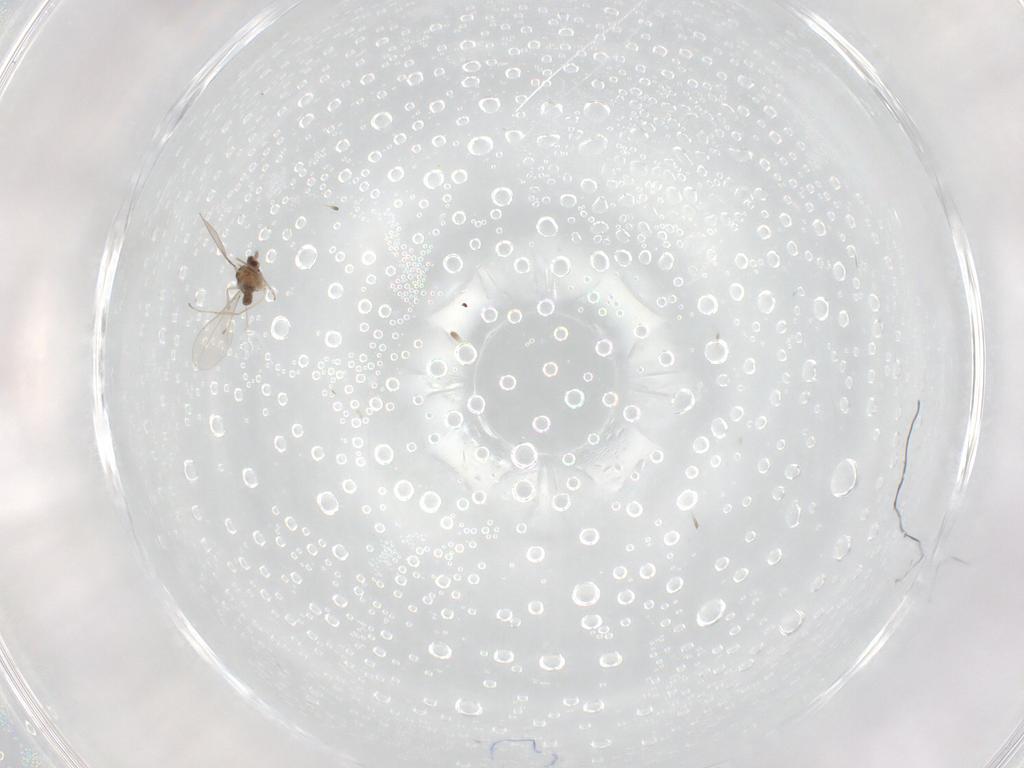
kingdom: Animalia
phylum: Arthropoda
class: Insecta
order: Diptera
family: Cecidomyiidae
